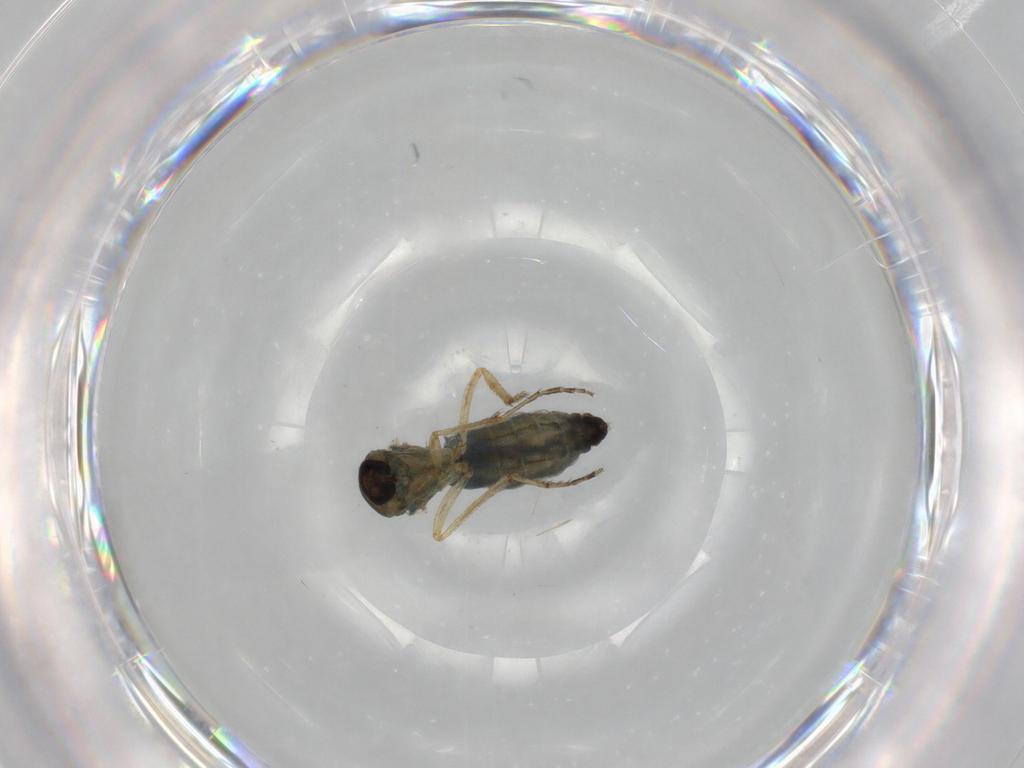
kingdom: Animalia
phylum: Arthropoda
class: Insecta
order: Diptera
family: Ceratopogonidae
